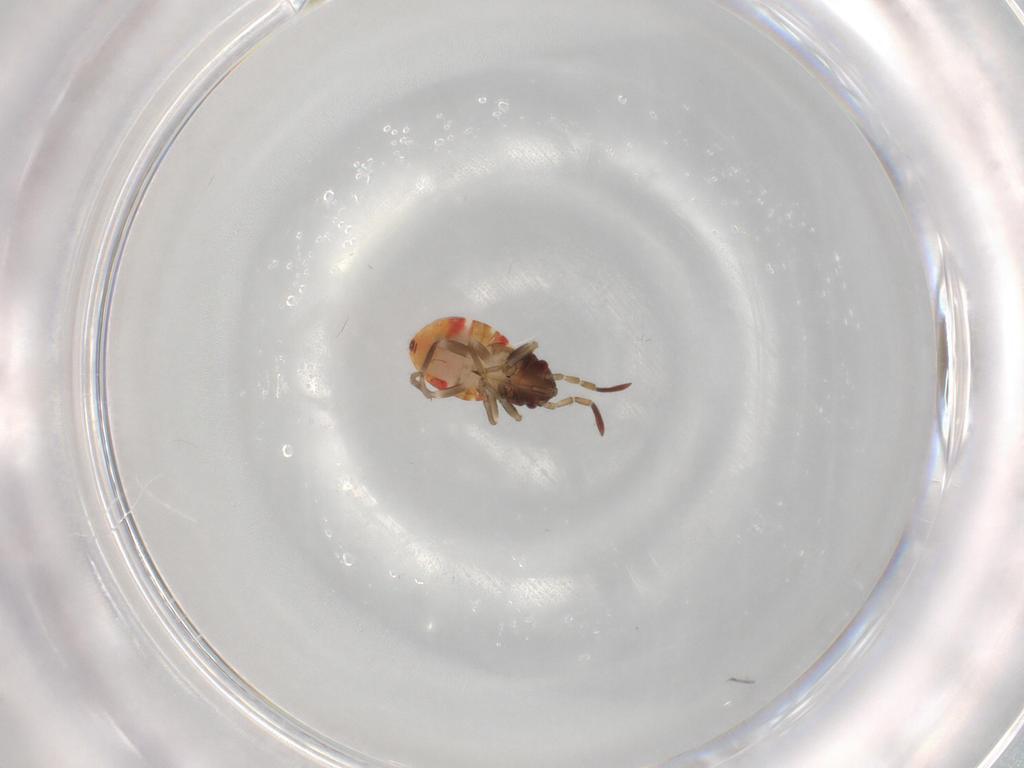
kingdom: Animalia
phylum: Arthropoda
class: Insecta
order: Hemiptera
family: Rhyparochromidae
